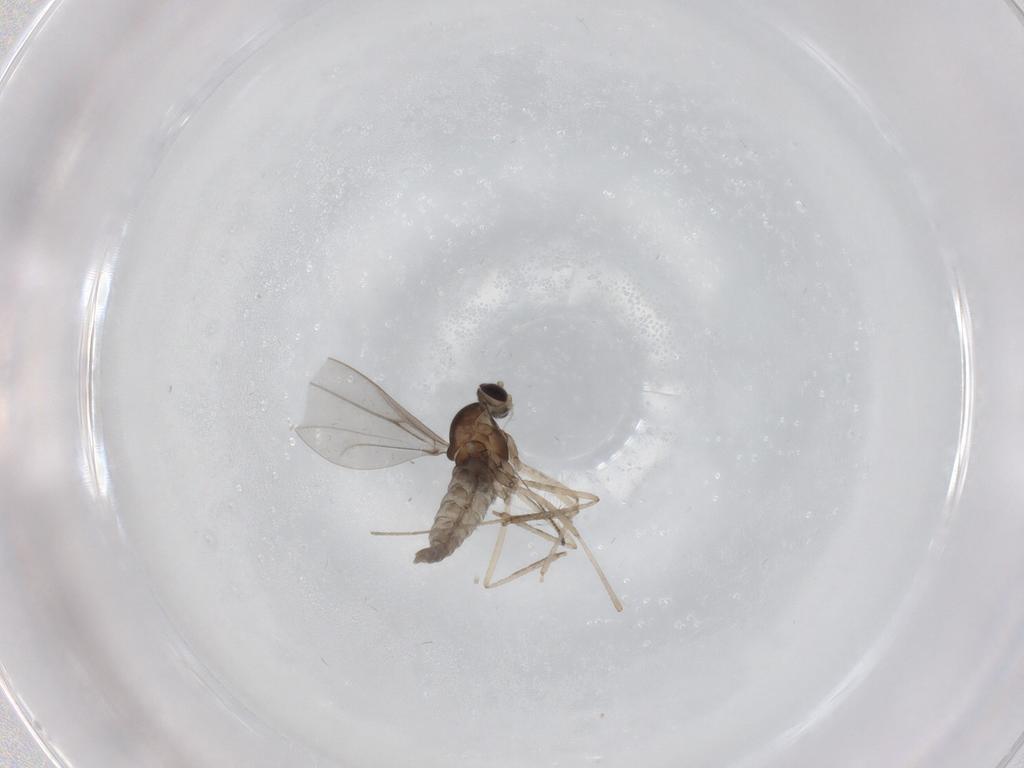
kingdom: Animalia
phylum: Arthropoda
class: Insecta
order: Diptera
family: Cecidomyiidae
